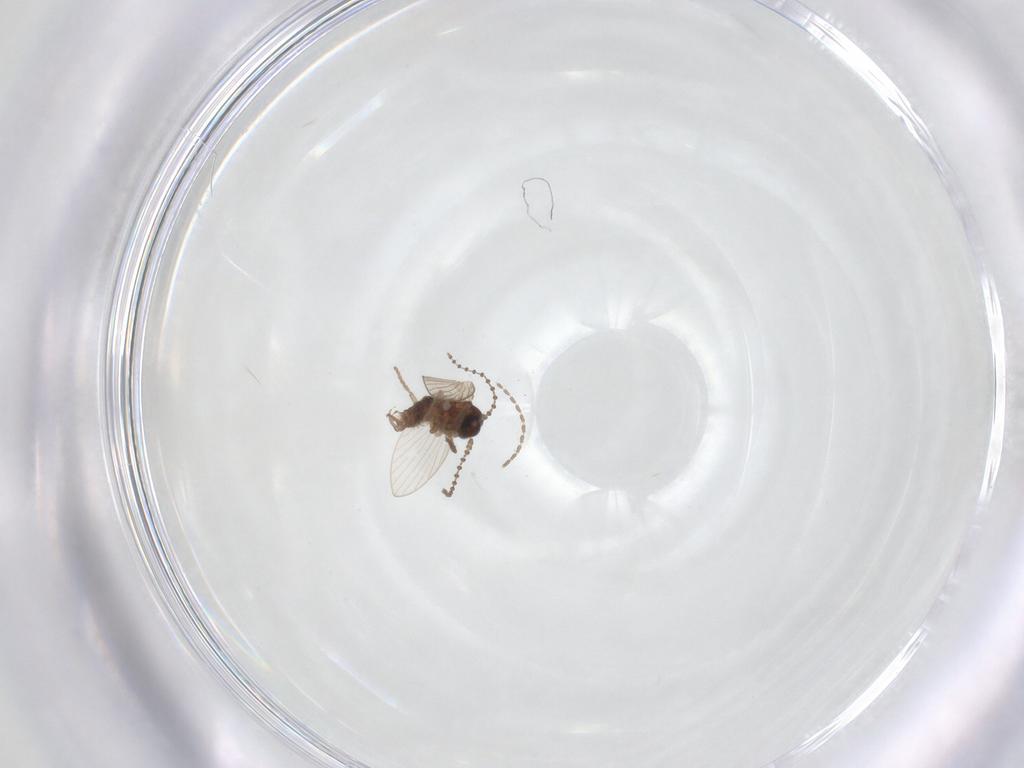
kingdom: Animalia
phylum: Arthropoda
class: Insecta
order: Diptera
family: Psychodidae
